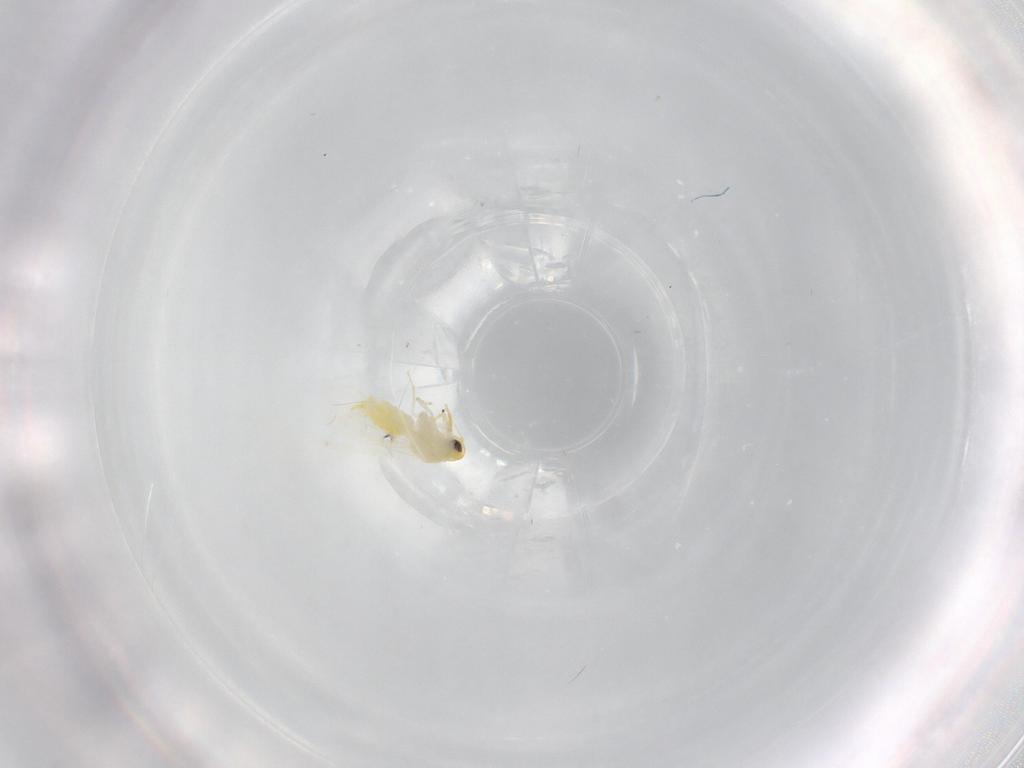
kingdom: Animalia
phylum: Arthropoda
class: Insecta
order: Hemiptera
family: Aleyrodidae
